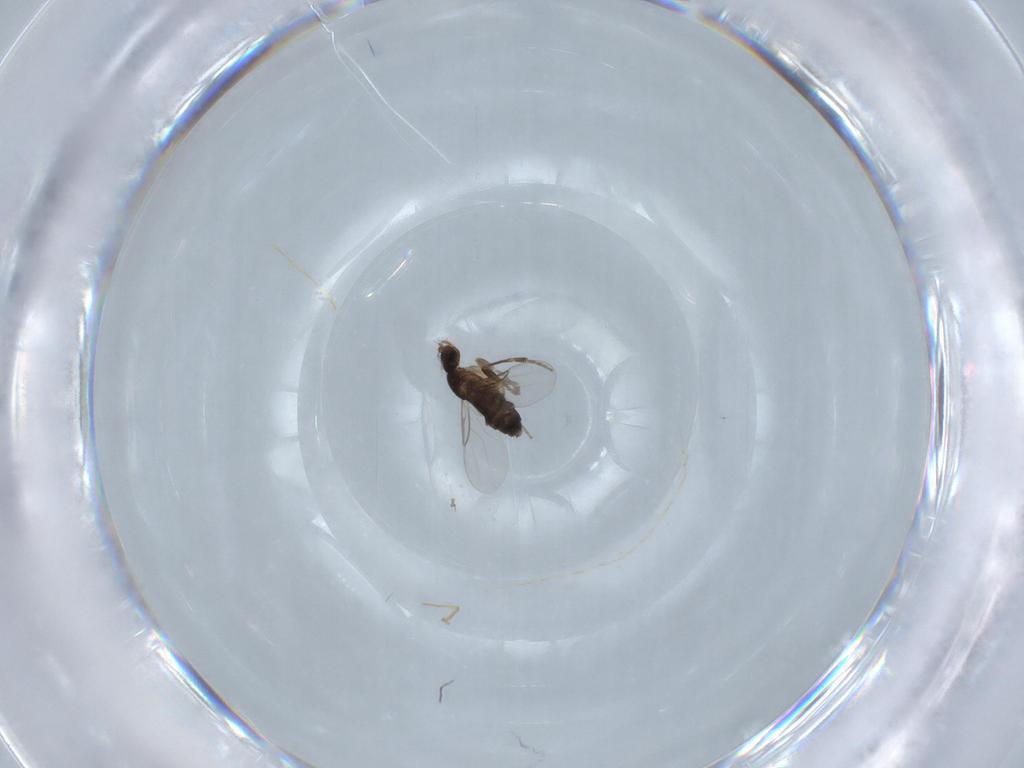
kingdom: Animalia
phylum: Arthropoda
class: Insecta
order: Diptera
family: Phoridae
